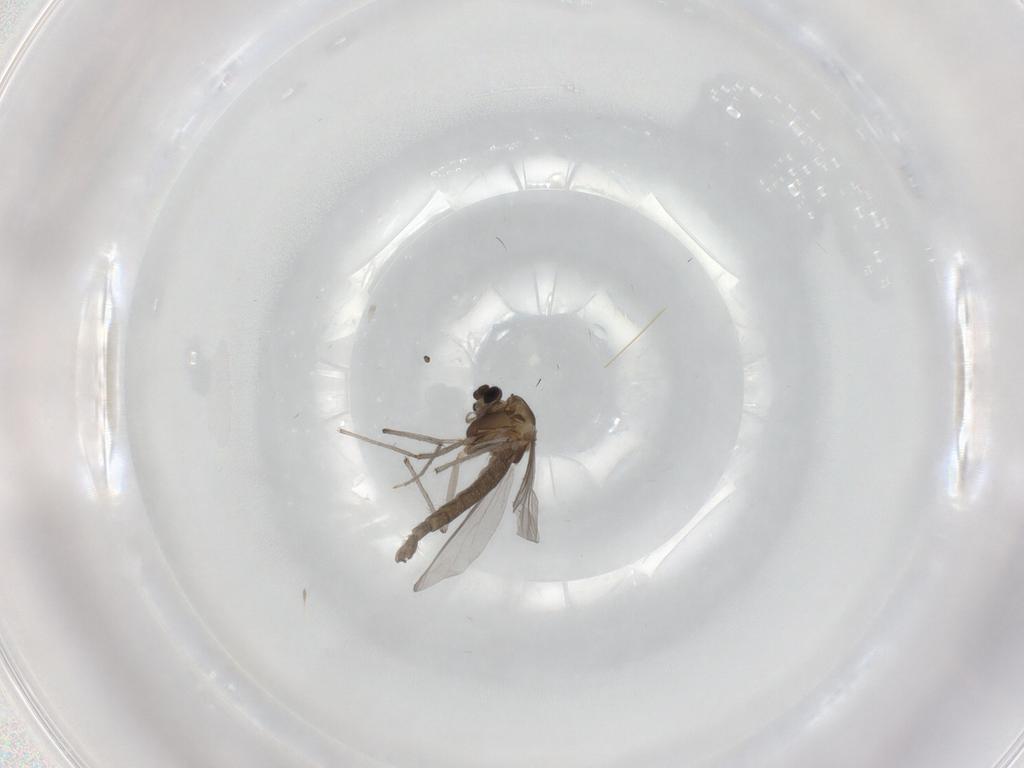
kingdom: Animalia
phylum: Arthropoda
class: Insecta
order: Diptera
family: Chironomidae
